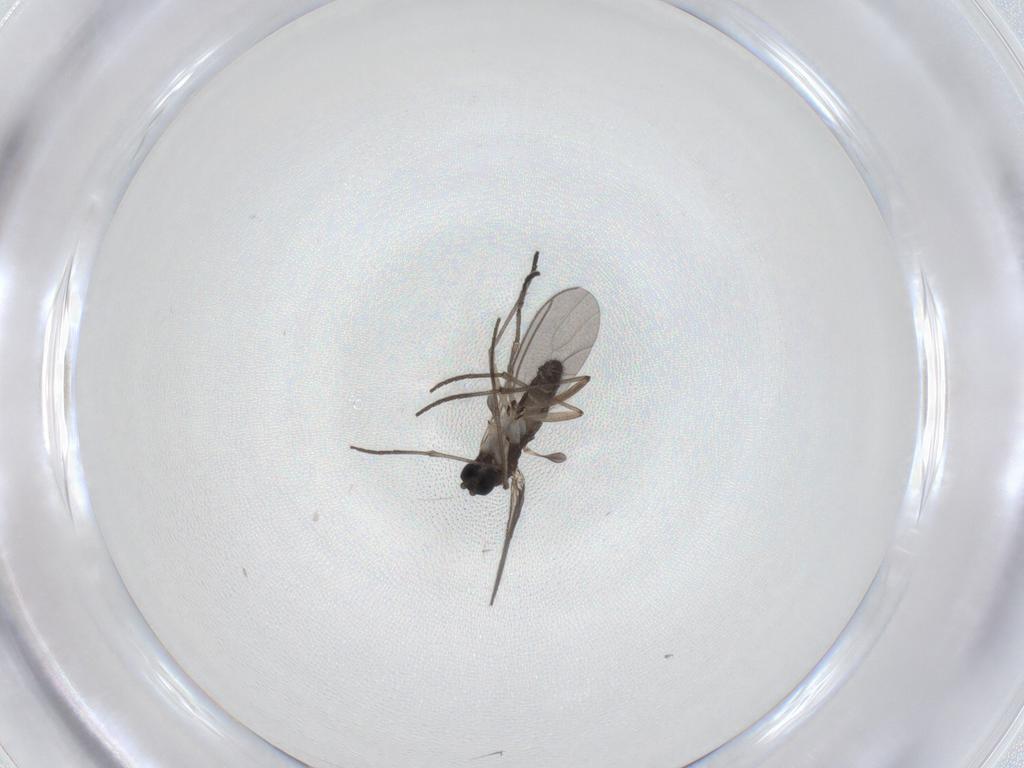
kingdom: Animalia
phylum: Arthropoda
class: Insecta
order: Diptera
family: Sciaridae
